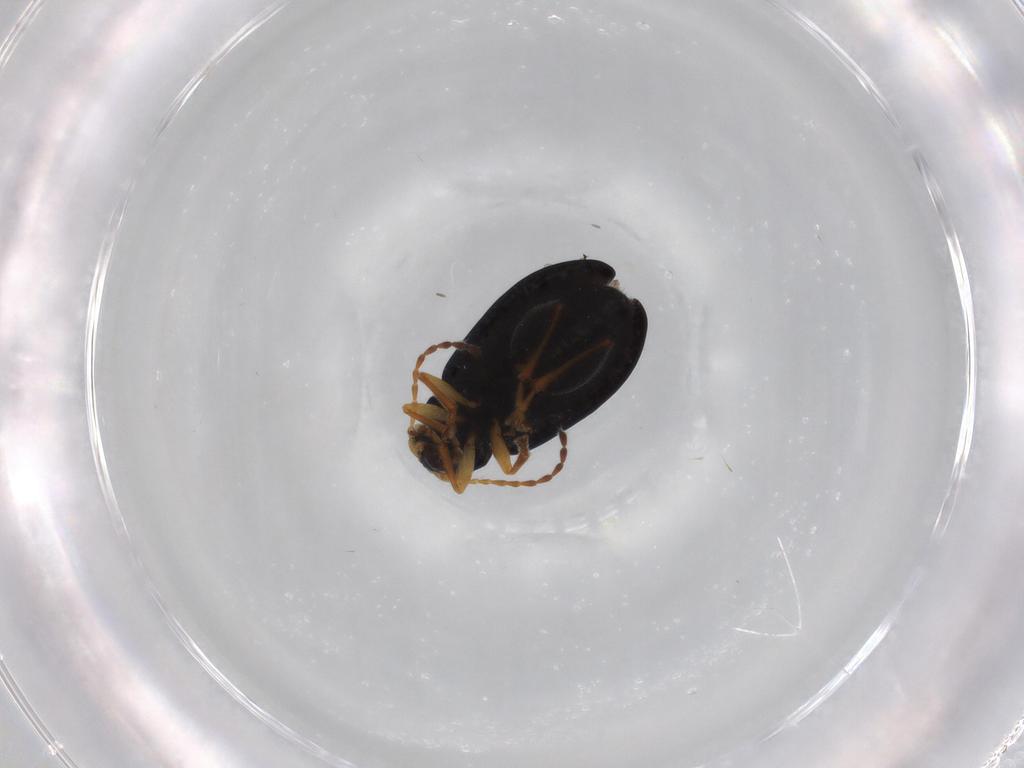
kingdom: Animalia
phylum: Arthropoda
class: Insecta
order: Coleoptera
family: Chrysomelidae
